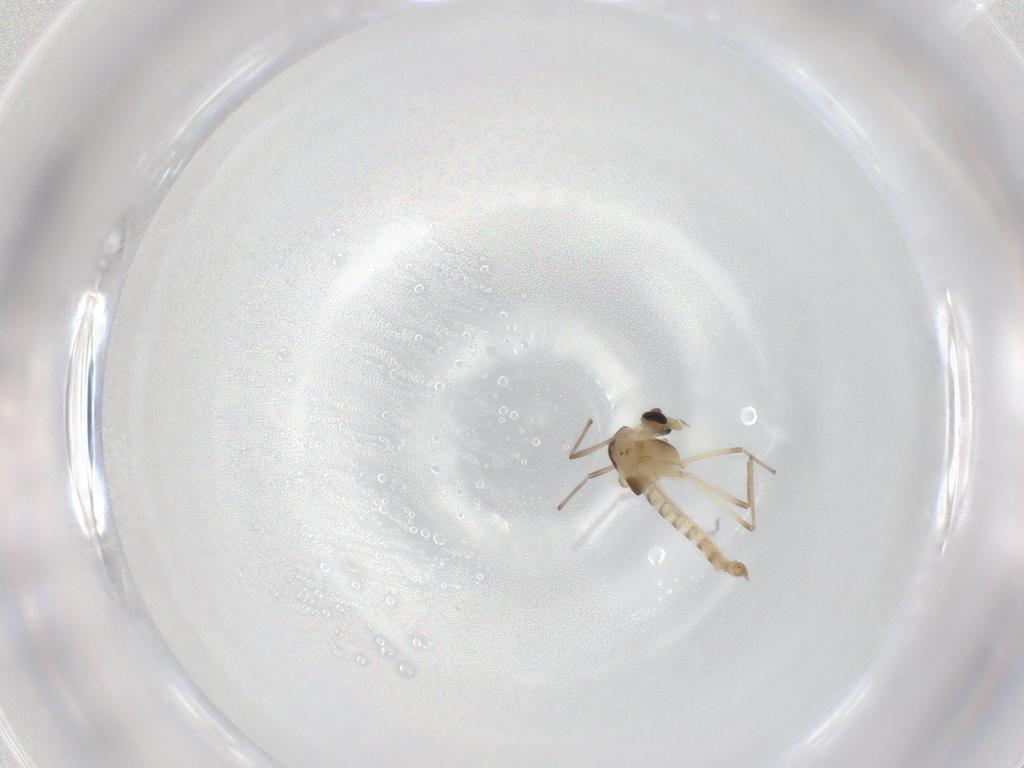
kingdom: Animalia
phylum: Arthropoda
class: Insecta
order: Diptera
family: Chironomidae
